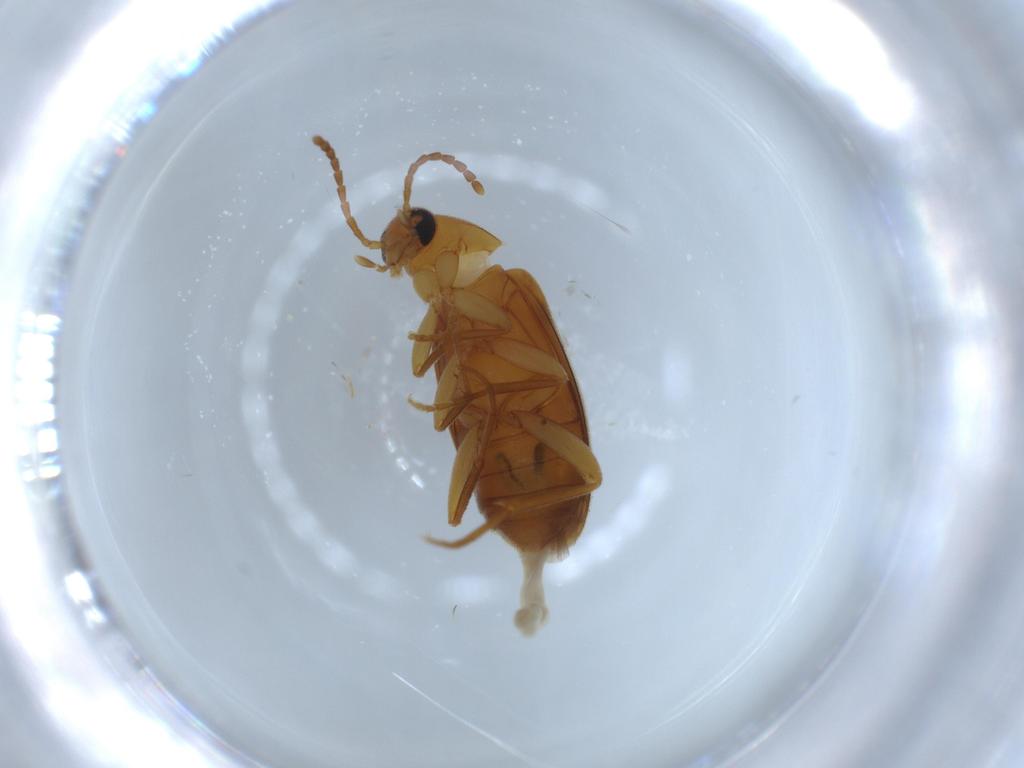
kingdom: Animalia
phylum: Arthropoda
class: Insecta
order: Coleoptera
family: Scraptiidae
